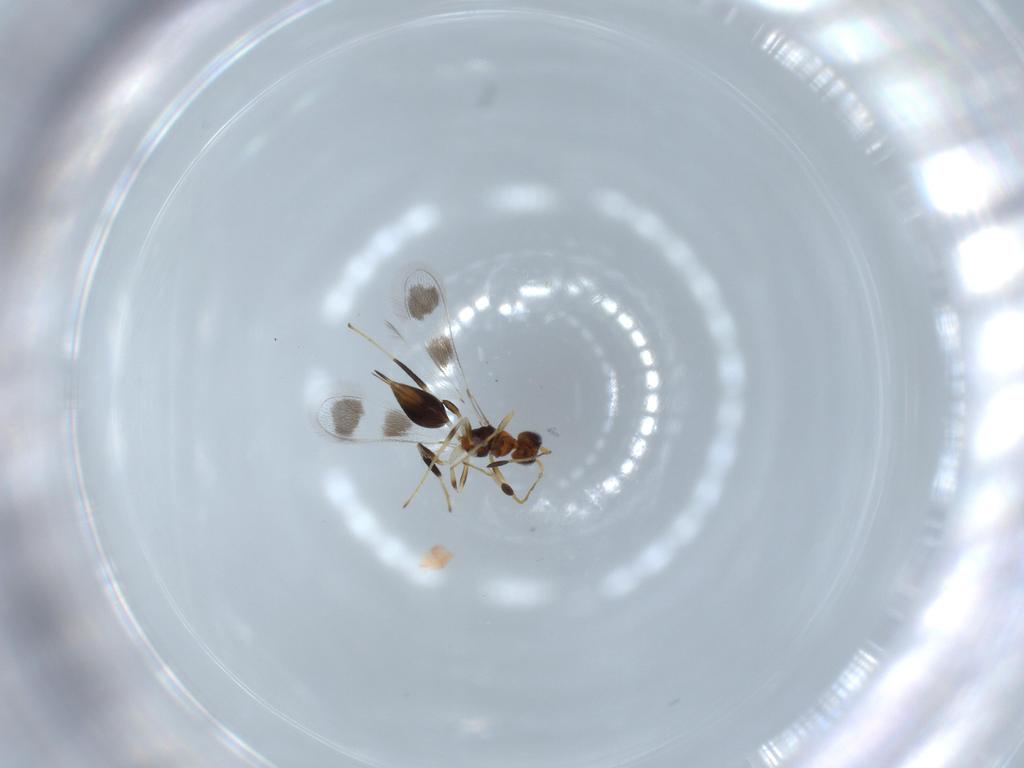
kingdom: Animalia
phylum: Arthropoda
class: Insecta
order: Hymenoptera
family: Mymaridae
